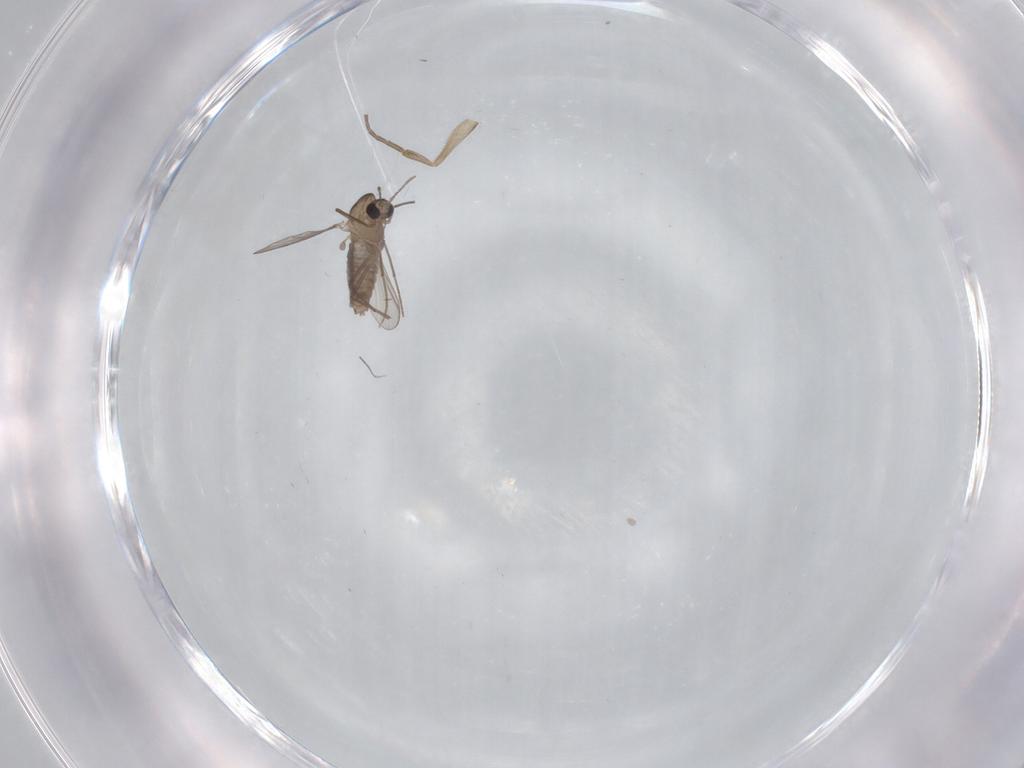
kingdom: Animalia
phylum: Arthropoda
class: Insecta
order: Diptera
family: Phoridae
